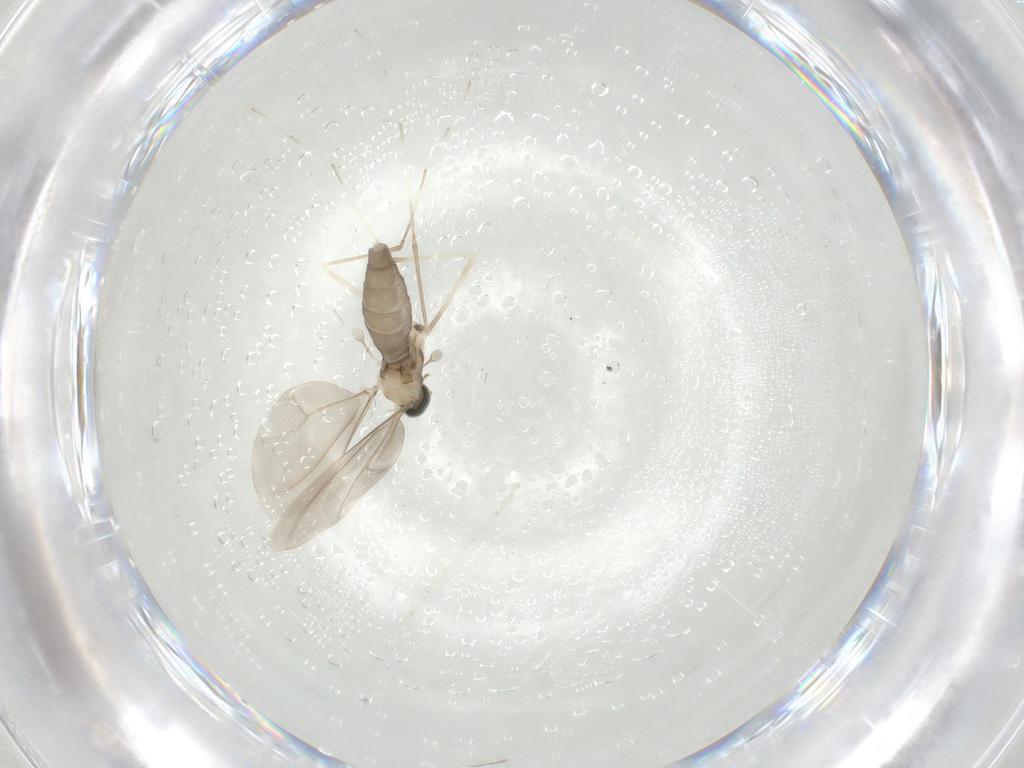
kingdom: Animalia
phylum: Arthropoda
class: Insecta
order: Diptera
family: Cecidomyiidae
